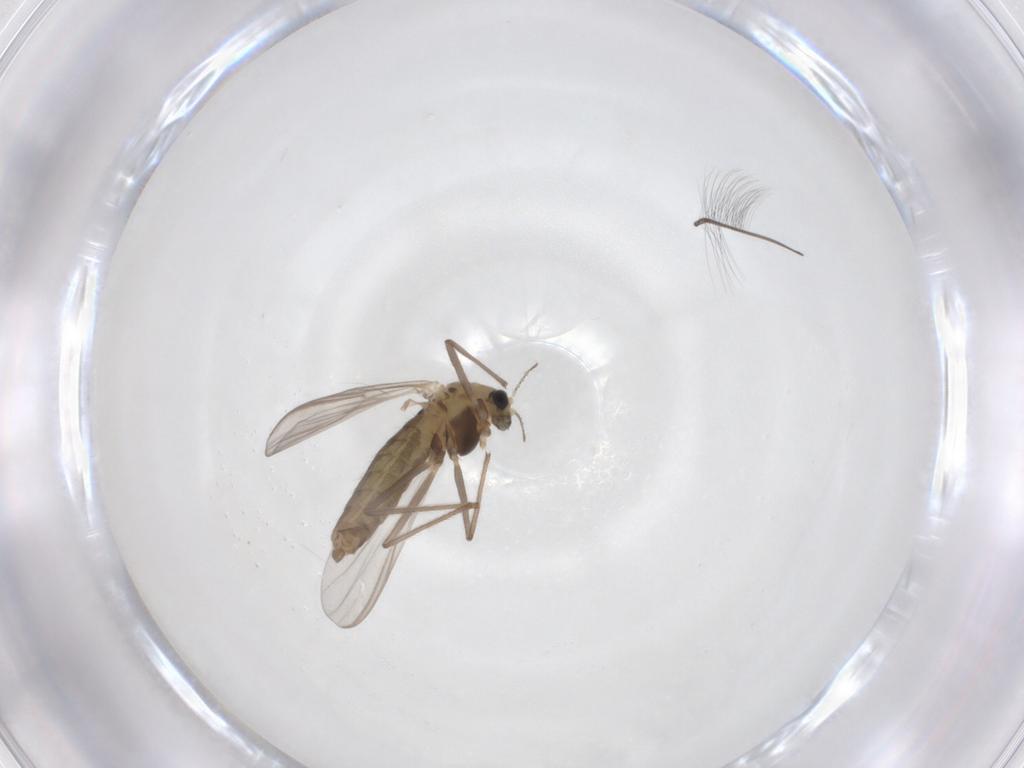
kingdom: Animalia
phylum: Arthropoda
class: Insecta
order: Diptera
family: Chironomidae
